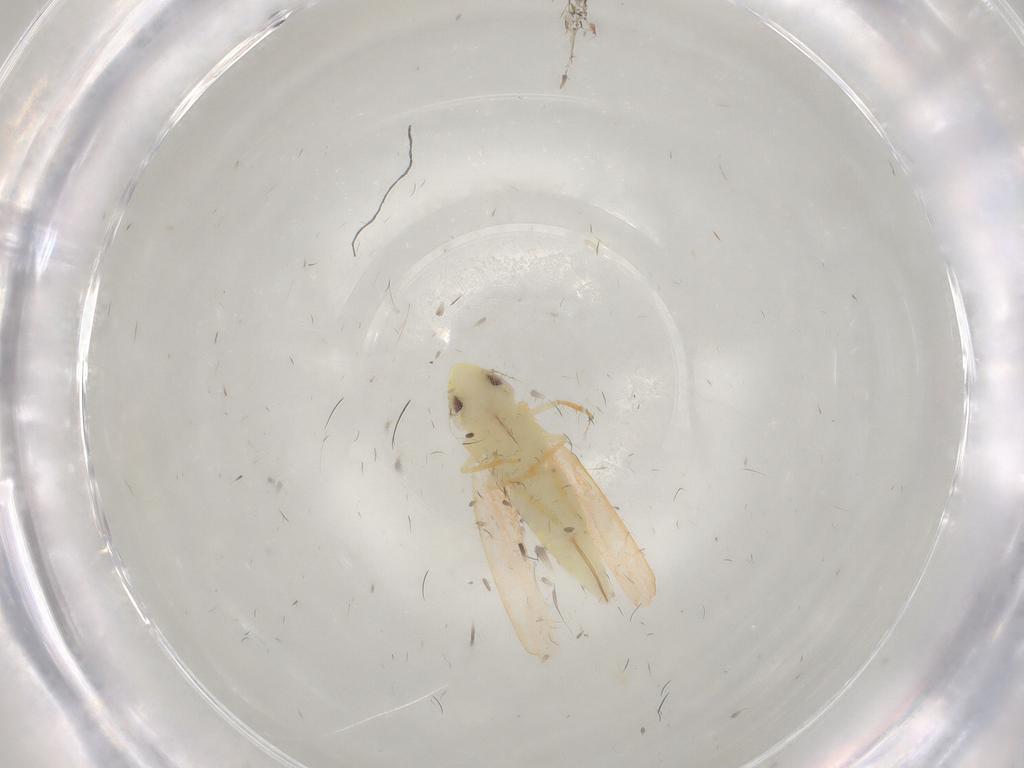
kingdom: Animalia
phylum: Arthropoda
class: Insecta
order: Hemiptera
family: Cicadellidae
